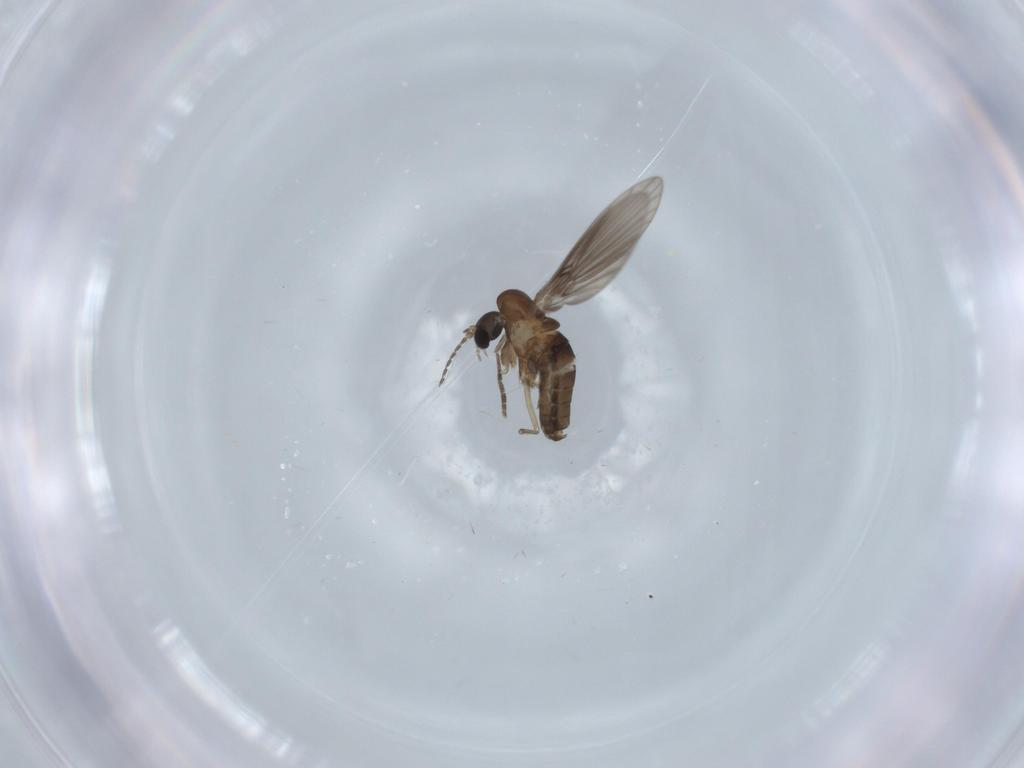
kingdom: Animalia
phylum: Arthropoda
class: Insecta
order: Diptera
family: Psychodidae
